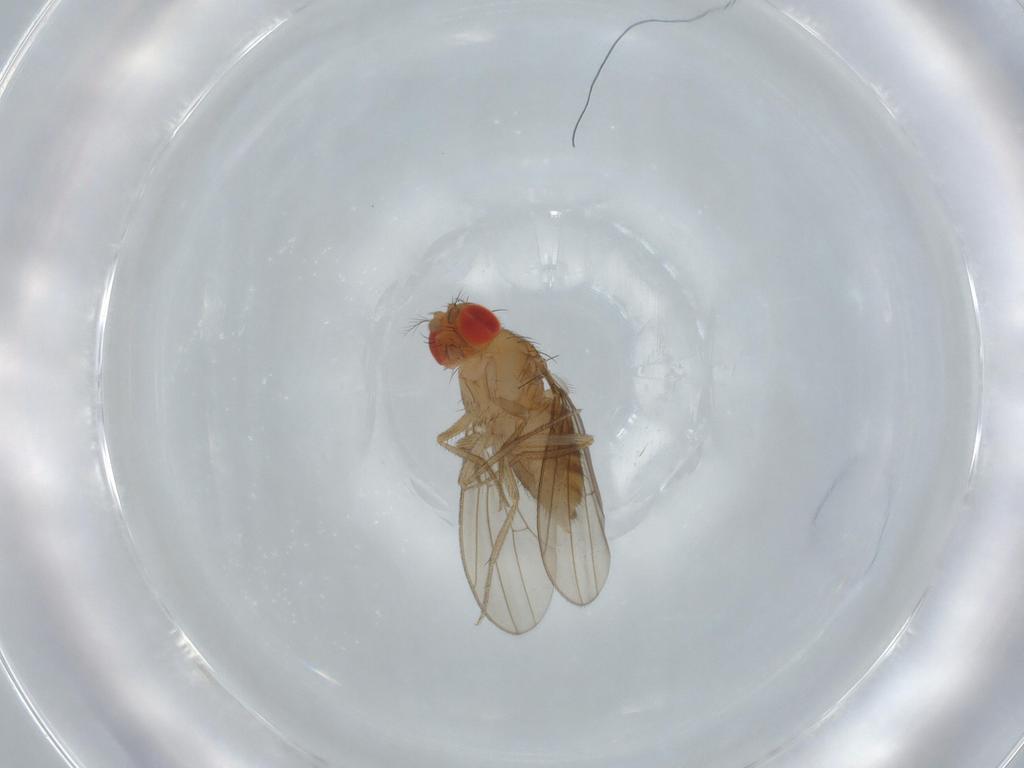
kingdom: Animalia
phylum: Arthropoda
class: Insecta
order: Diptera
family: Drosophilidae
